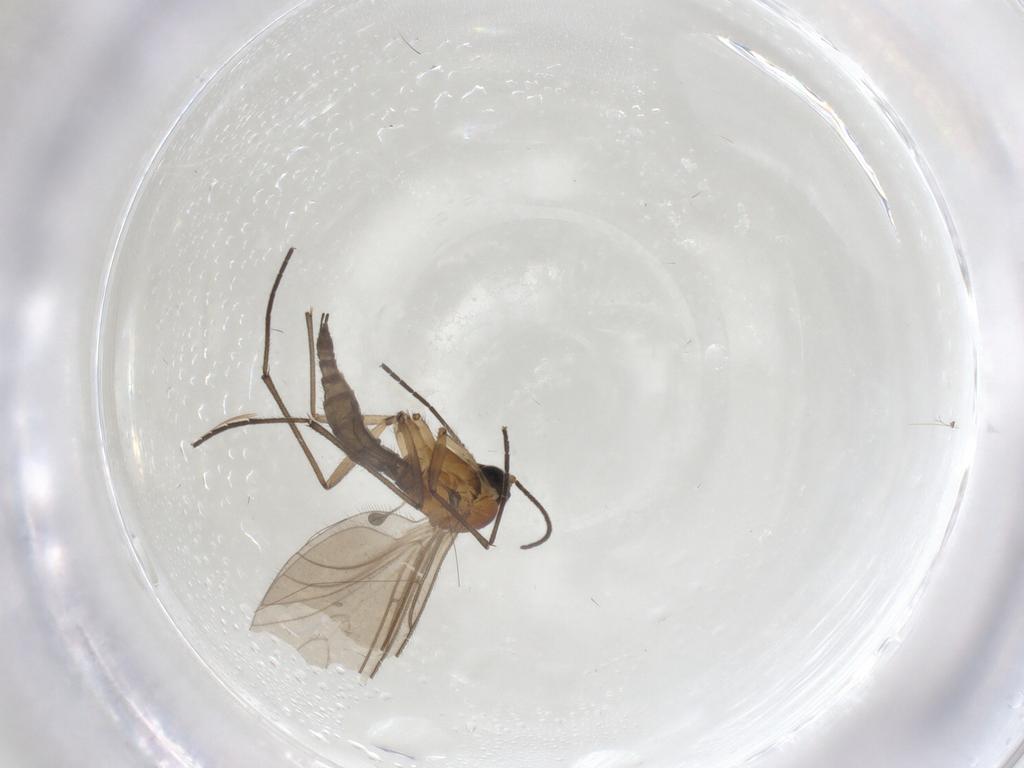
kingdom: Animalia
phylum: Arthropoda
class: Insecta
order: Diptera
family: Sciaridae
